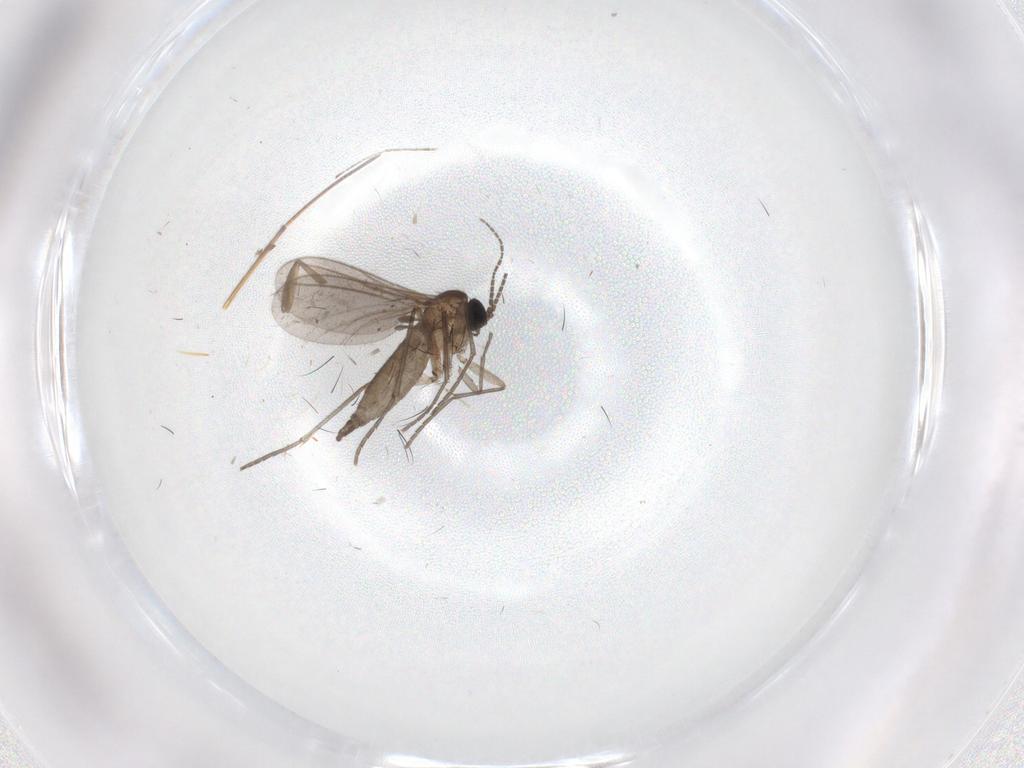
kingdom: Animalia
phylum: Arthropoda
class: Insecta
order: Diptera
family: Sciaridae
